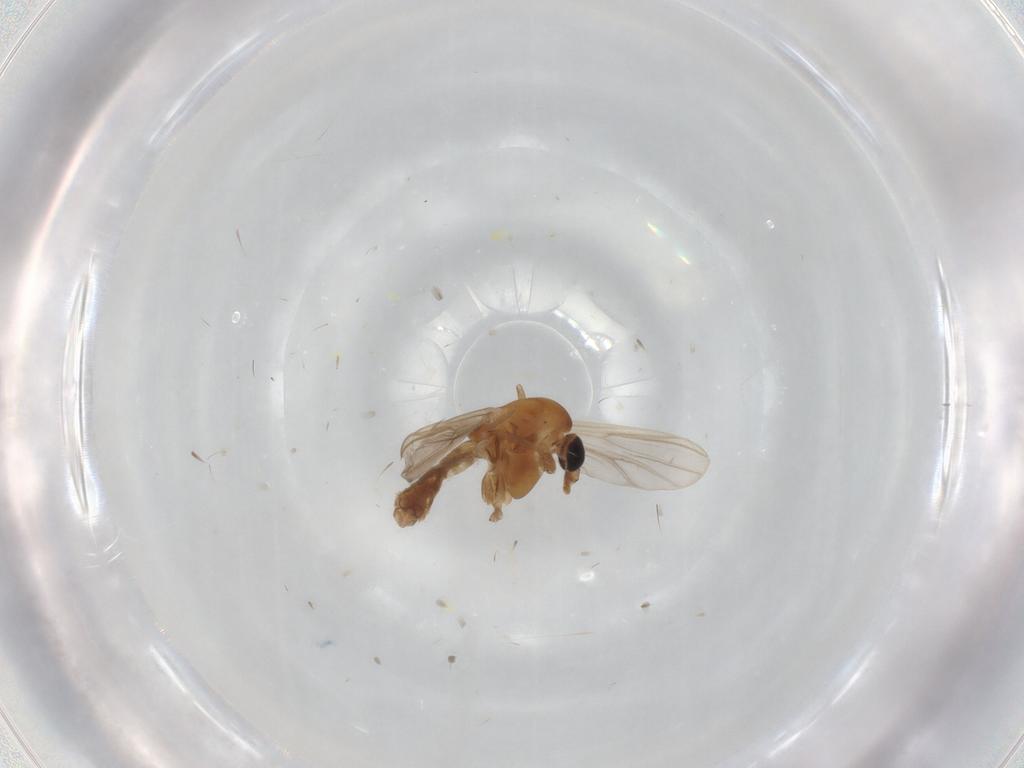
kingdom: Animalia
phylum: Arthropoda
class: Insecta
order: Diptera
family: Chironomidae
